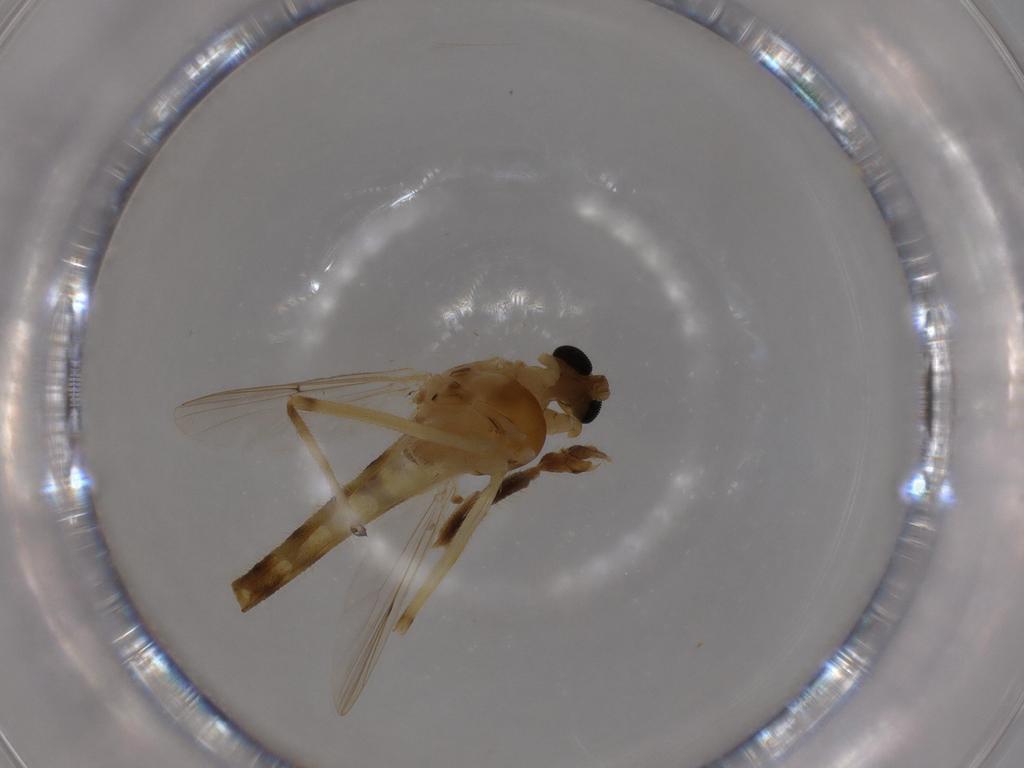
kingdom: Animalia
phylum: Arthropoda
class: Insecta
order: Diptera
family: Chironomidae
